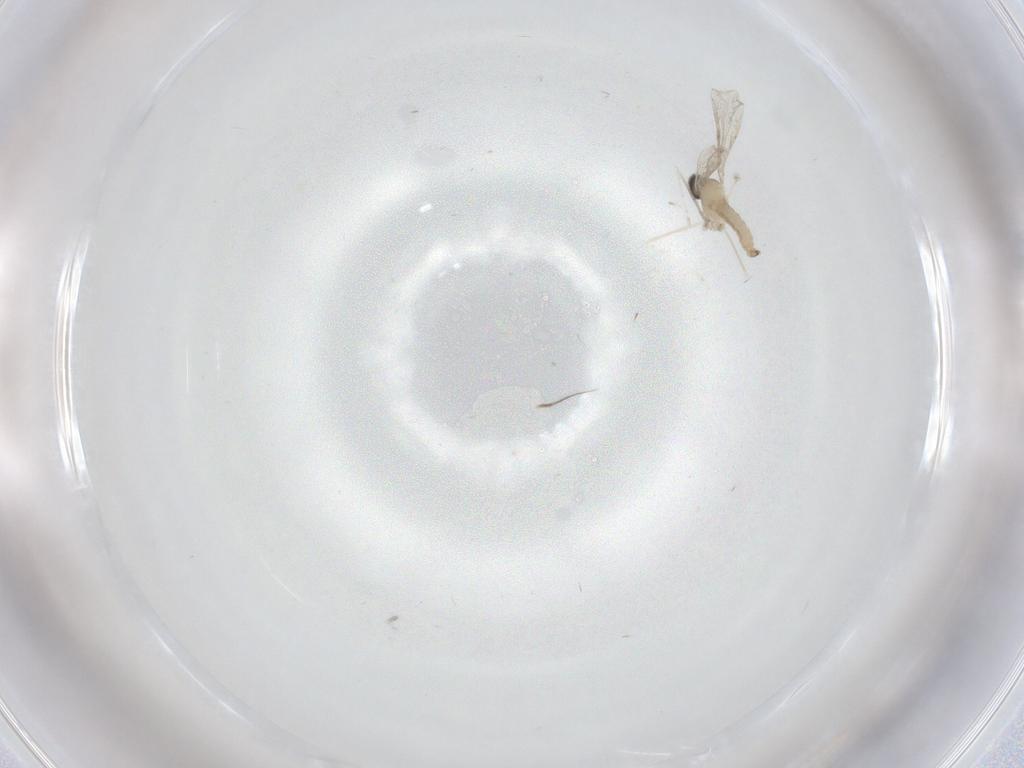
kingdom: Animalia
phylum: Arthropoda
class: Insecta
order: Diptera
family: Cecidomyiidae
